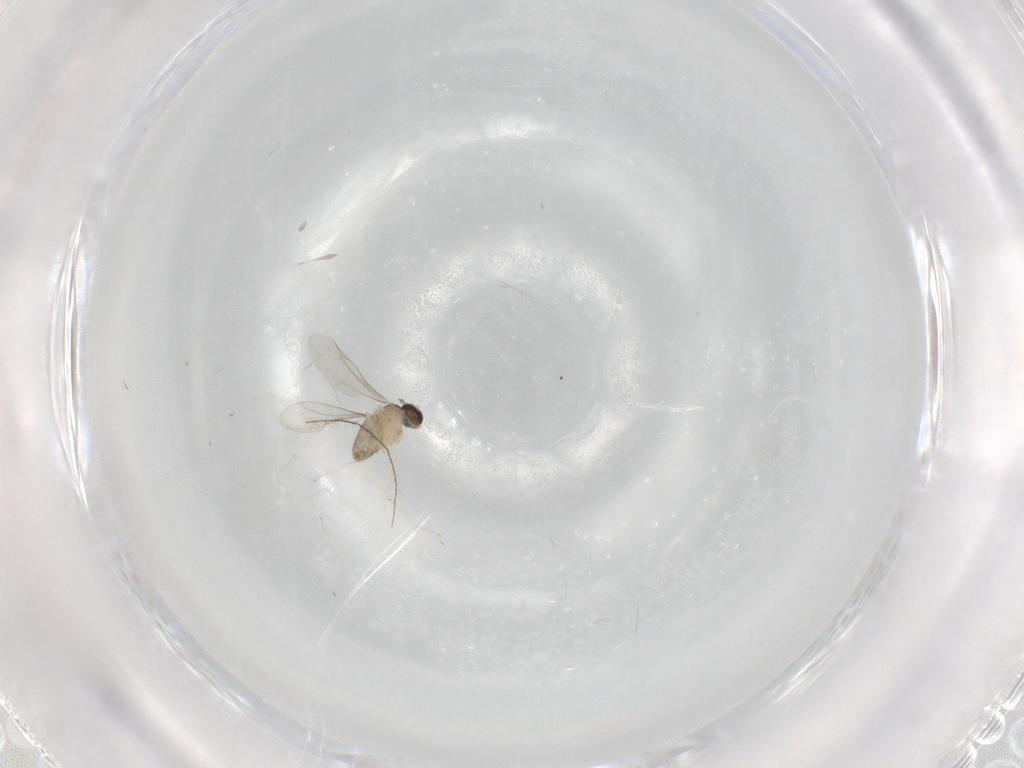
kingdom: Animalia
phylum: Arthropoda
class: Insecta
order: Diptera
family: Cecidomyiidae
